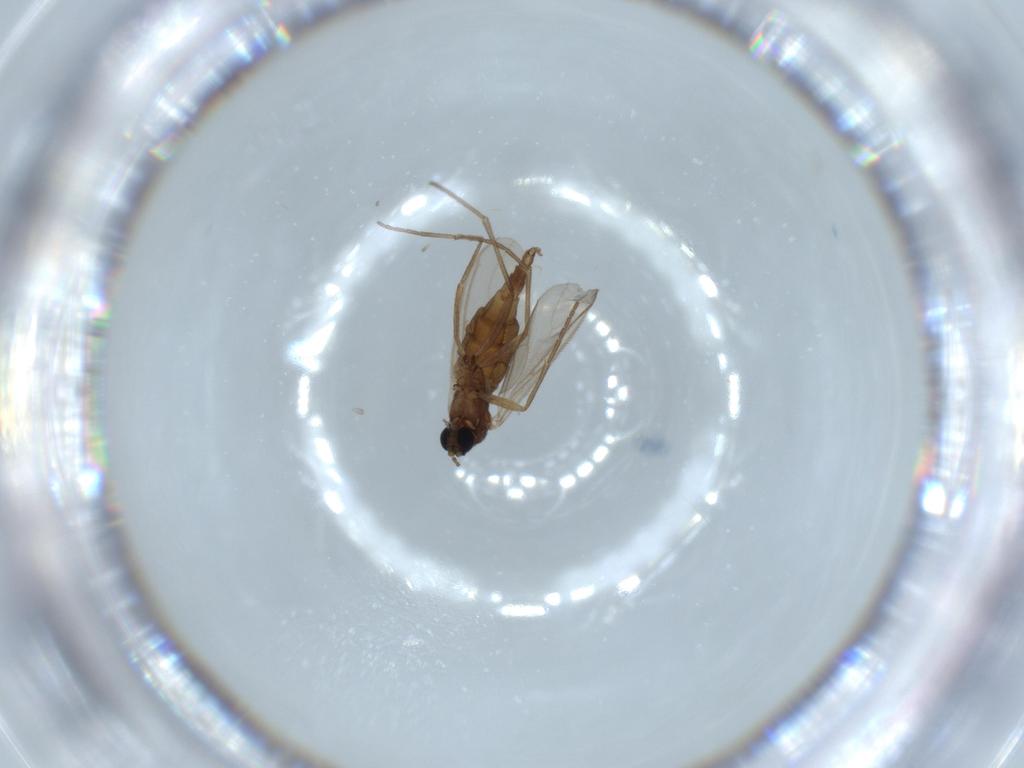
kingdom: Animalia
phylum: Arthropoda
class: Insecta
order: Diptera
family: Sciaridae
